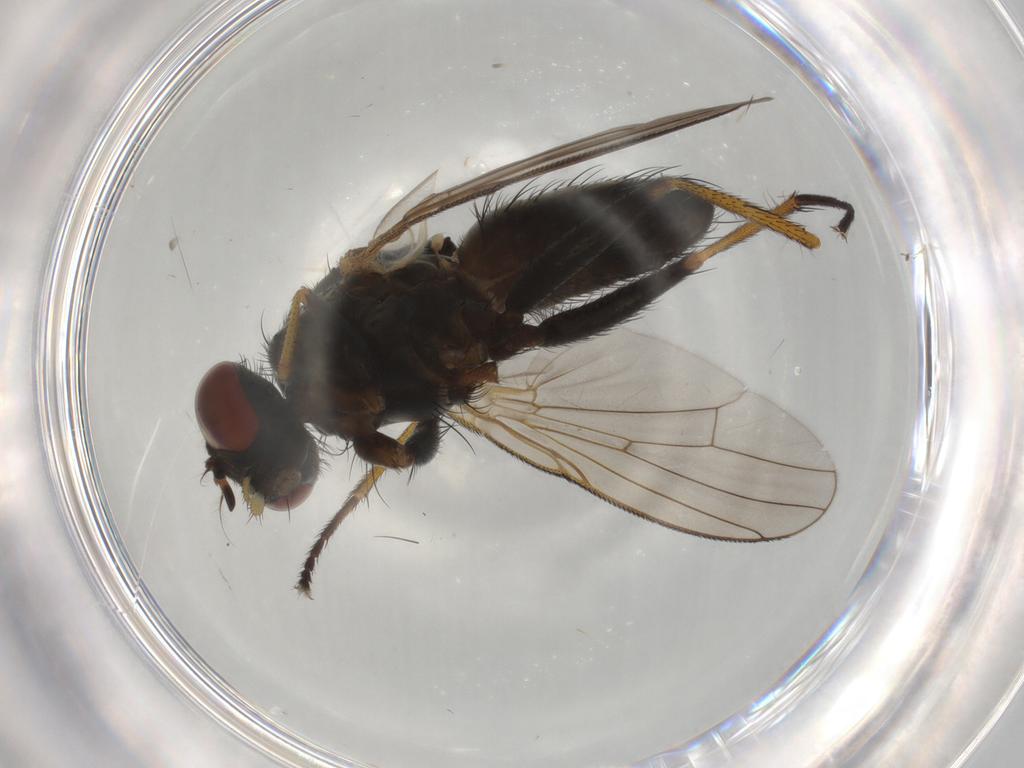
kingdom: Animalia
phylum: Arthropoda
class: Insecta
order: Diptera
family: Muscidae
